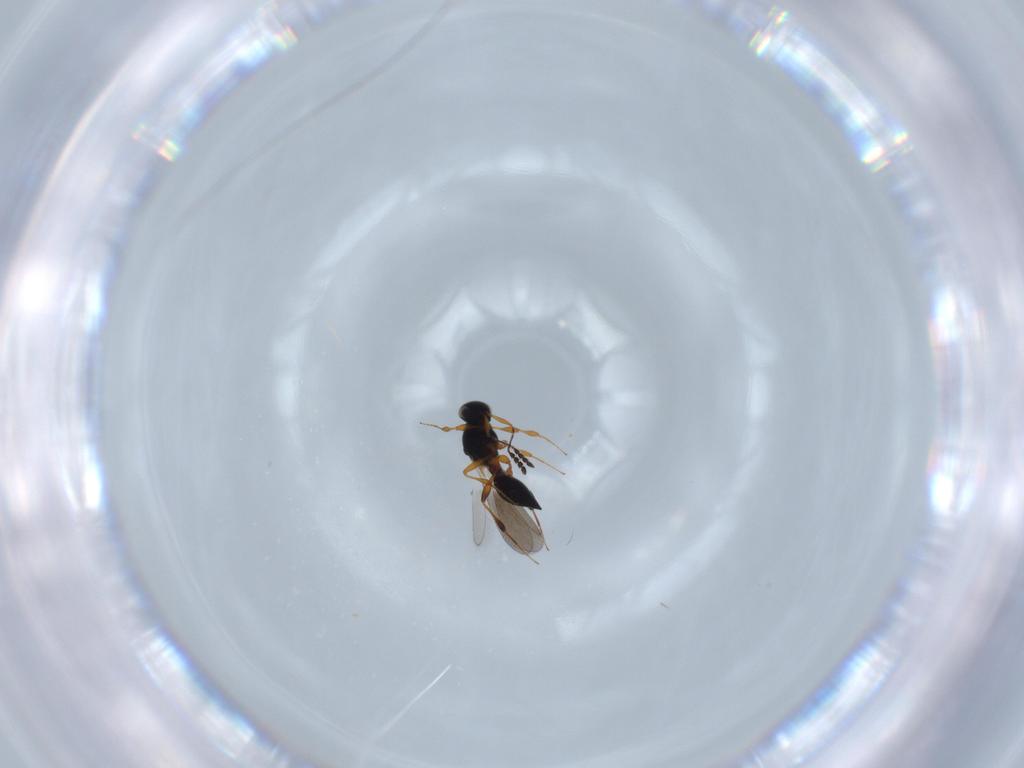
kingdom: Animalia
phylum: Arthropoda
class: Insecta
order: Hymenoptera
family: Platygastridae
